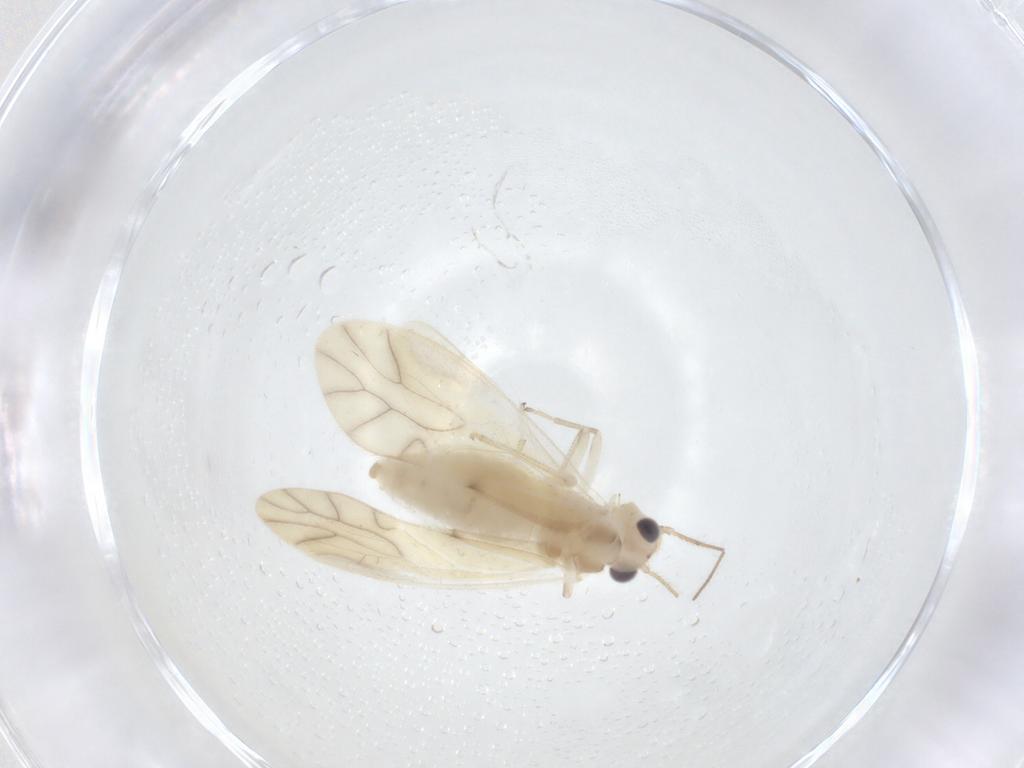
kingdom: Animalia
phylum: Arthropoda
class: Insecta
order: Psocodea
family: Caeciliusidae
